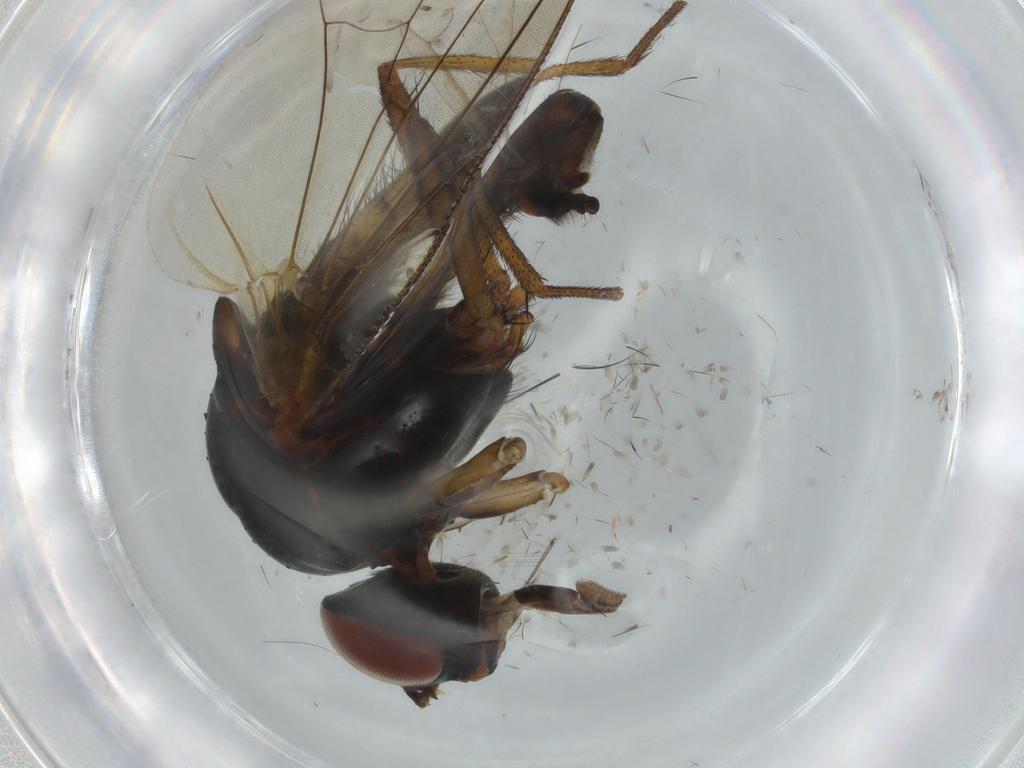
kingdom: Animalia
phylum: Arthropoda
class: Insecta
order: Diptera
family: Anthomyiidae
